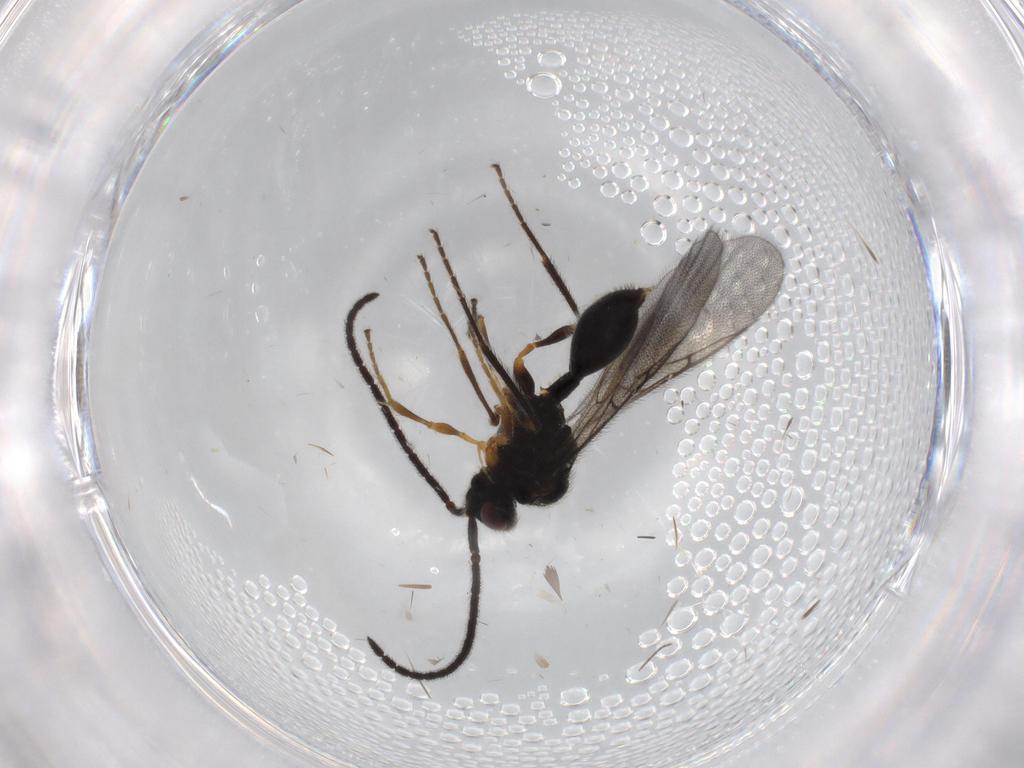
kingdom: Animalia
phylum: Arthropoda
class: Insecta
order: Hymenoptera
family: Diapriidae
